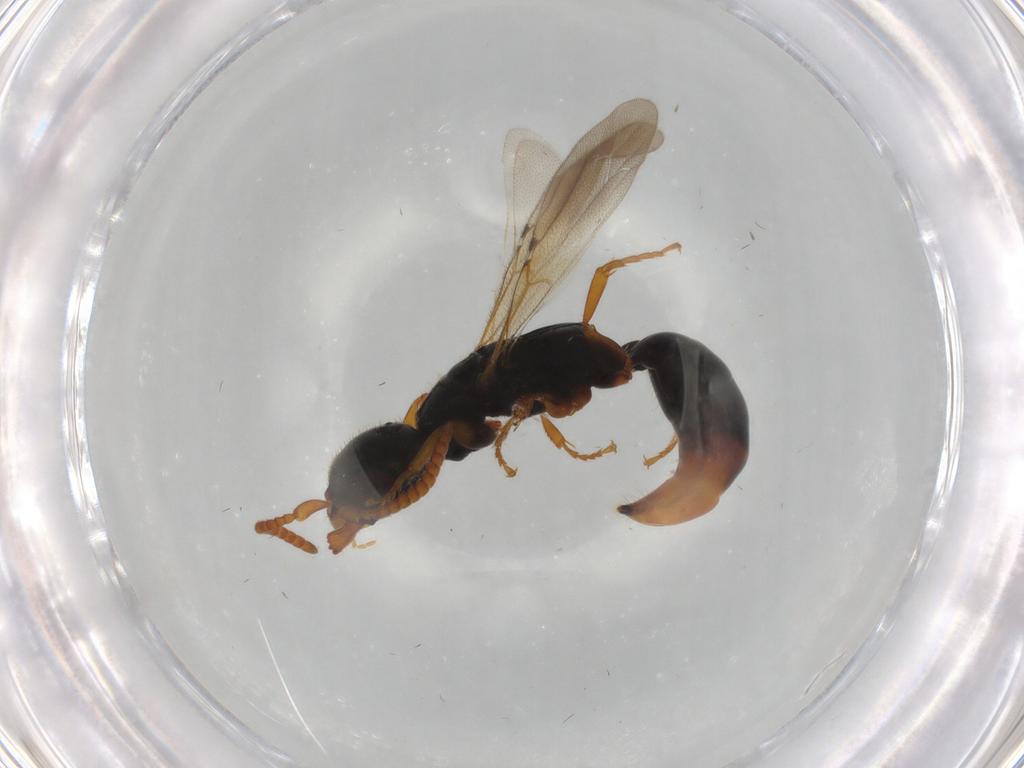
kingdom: Animalia
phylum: Arthropoda
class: Insecta
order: Hymenoptera
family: Bethylidae
